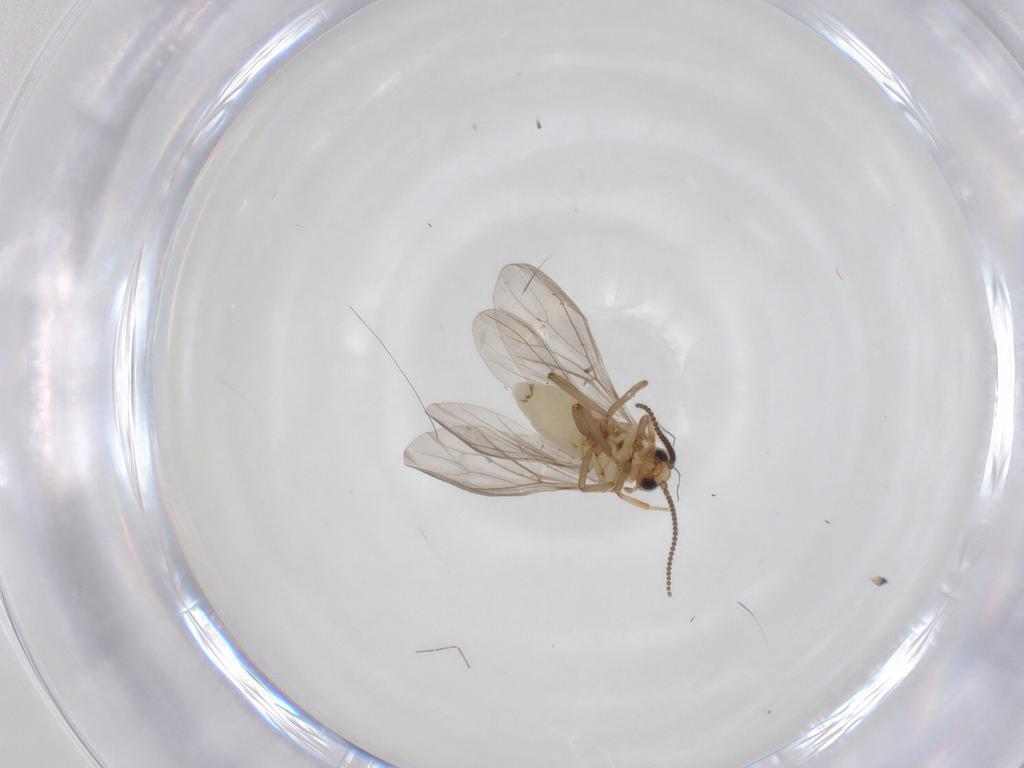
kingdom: Animalia
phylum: Arthropoda
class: Insecta
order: Neuroptera
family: Coniopterygidae
